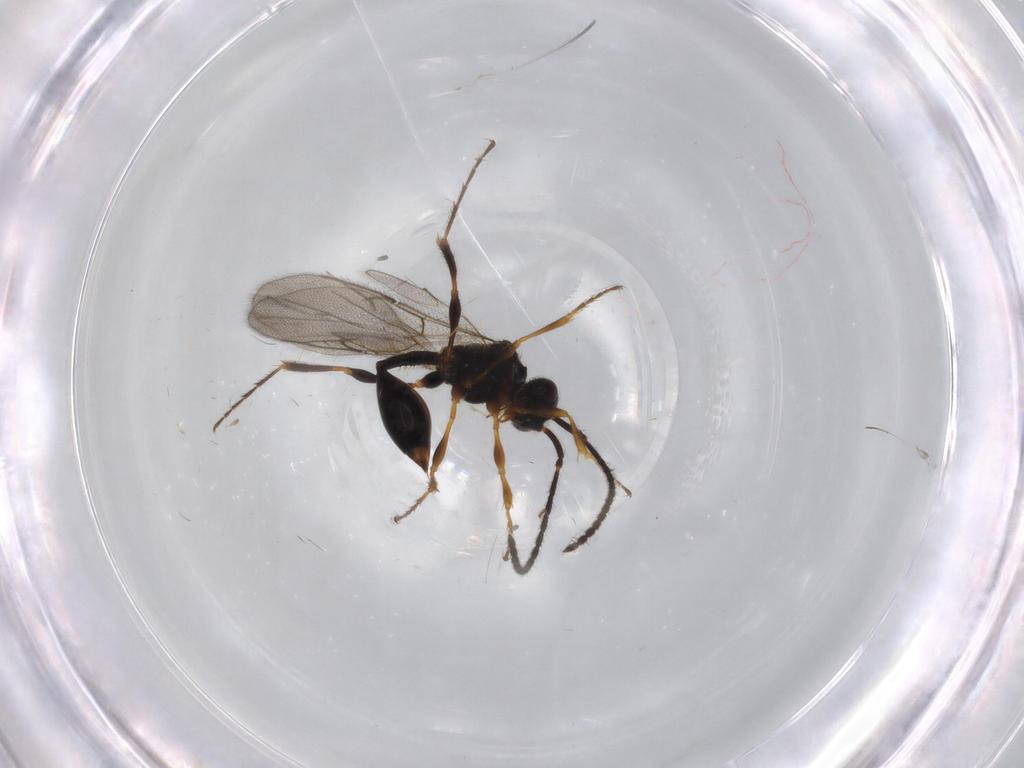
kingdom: Animalia
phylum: Arthropoda
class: Insecta
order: Hymenoptera
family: Diapriidae
